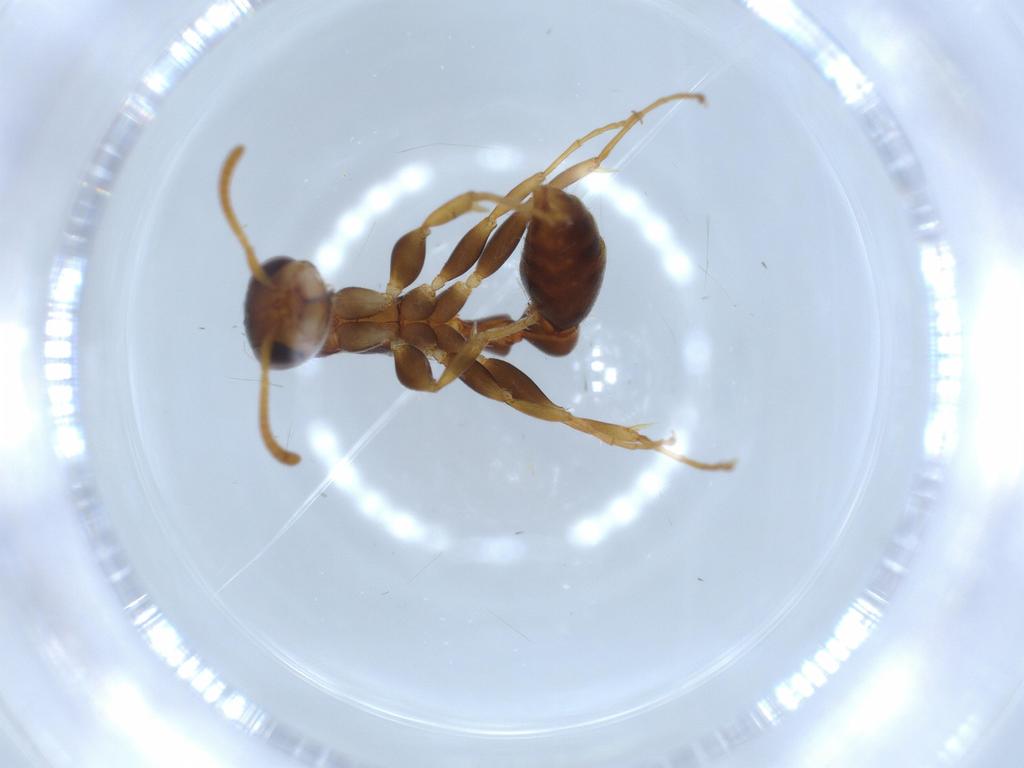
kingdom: Animalia
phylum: Arthropoda
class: Insecta
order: Hymenoptera
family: Formicidae
